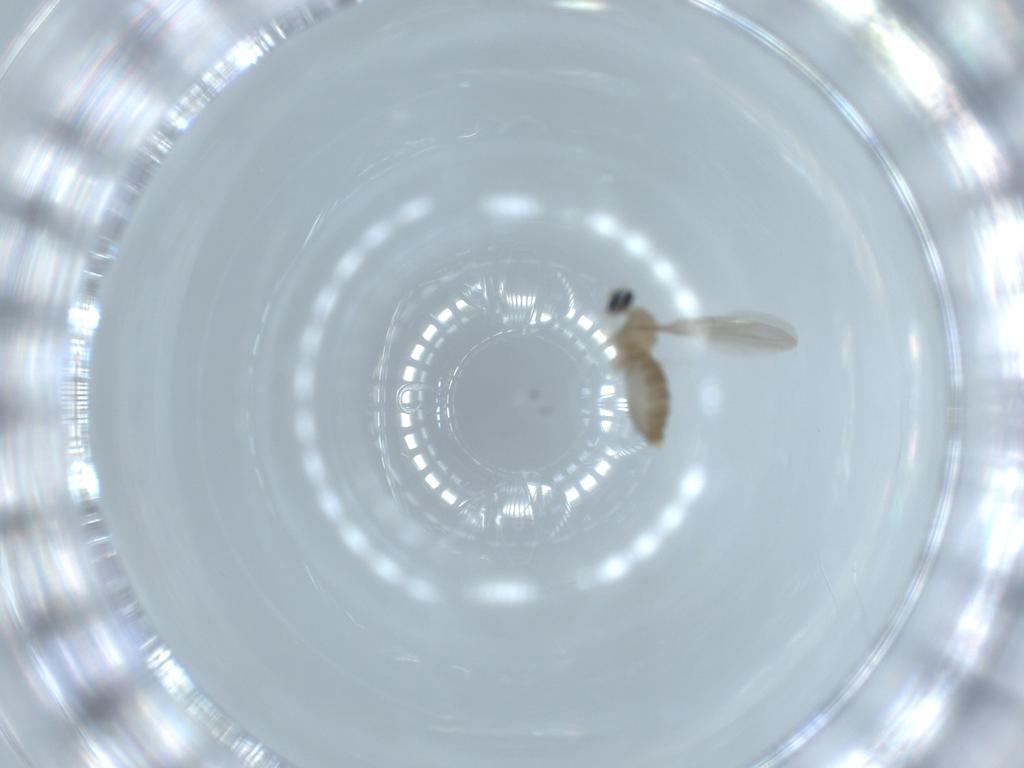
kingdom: Animalia
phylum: Arthropoda
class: Insecta
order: Diptera
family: Cecidomyiidae
